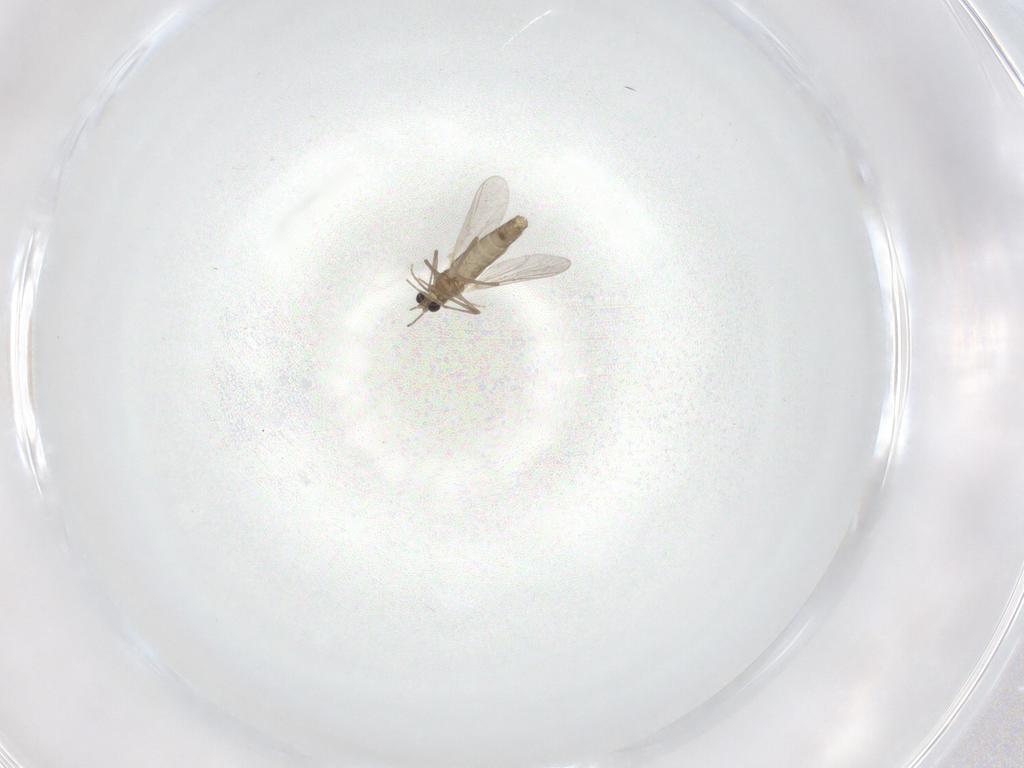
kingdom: Animalia
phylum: Arthropoda
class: Insecta
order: Diptera
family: Chironomidae
